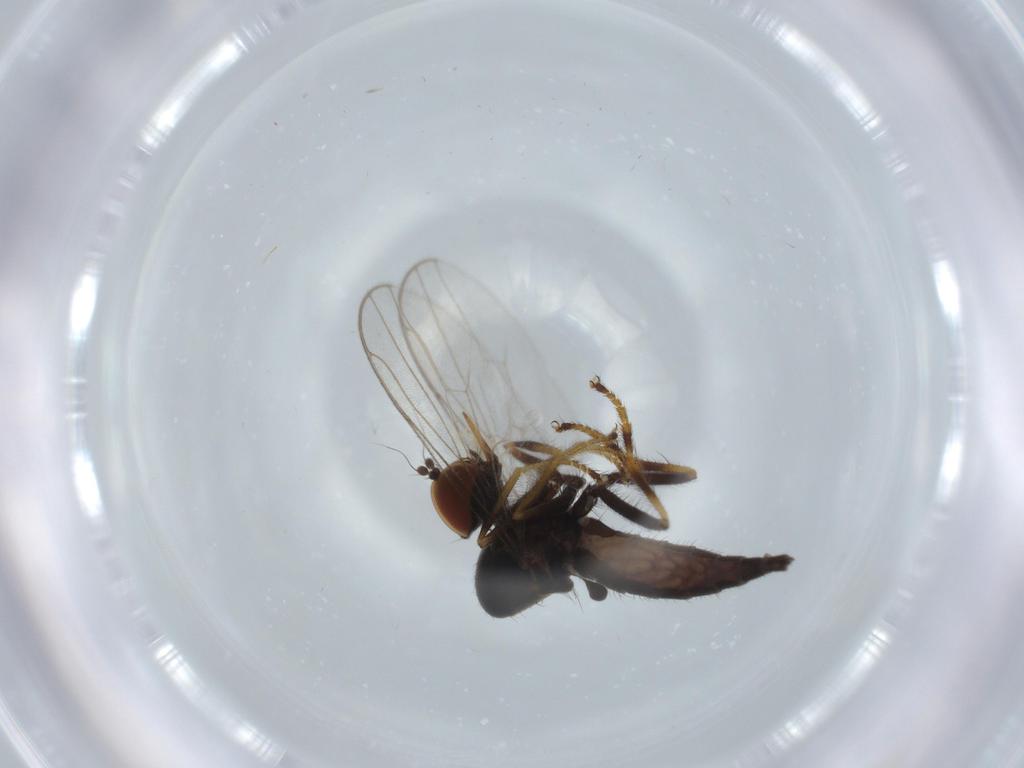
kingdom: Animalia
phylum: Arthropoda
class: Insecta
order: Diptera
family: Hybotidae
